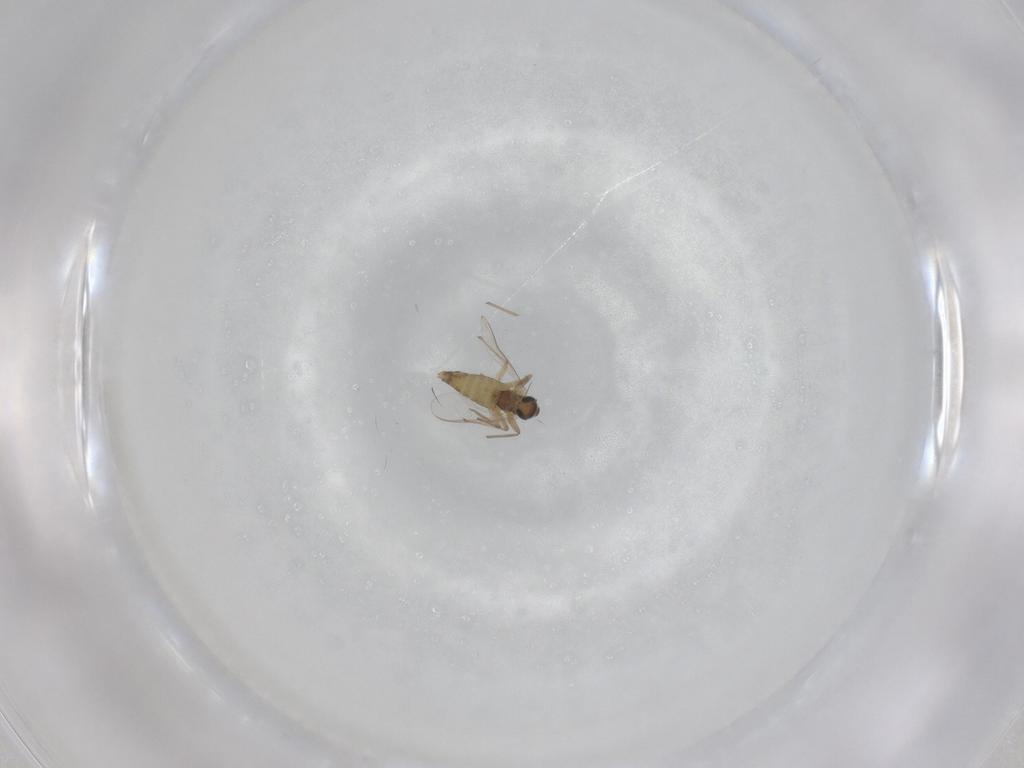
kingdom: Animalia
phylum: Arthropoda
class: Insecta
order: Diptera
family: Chironomidae
